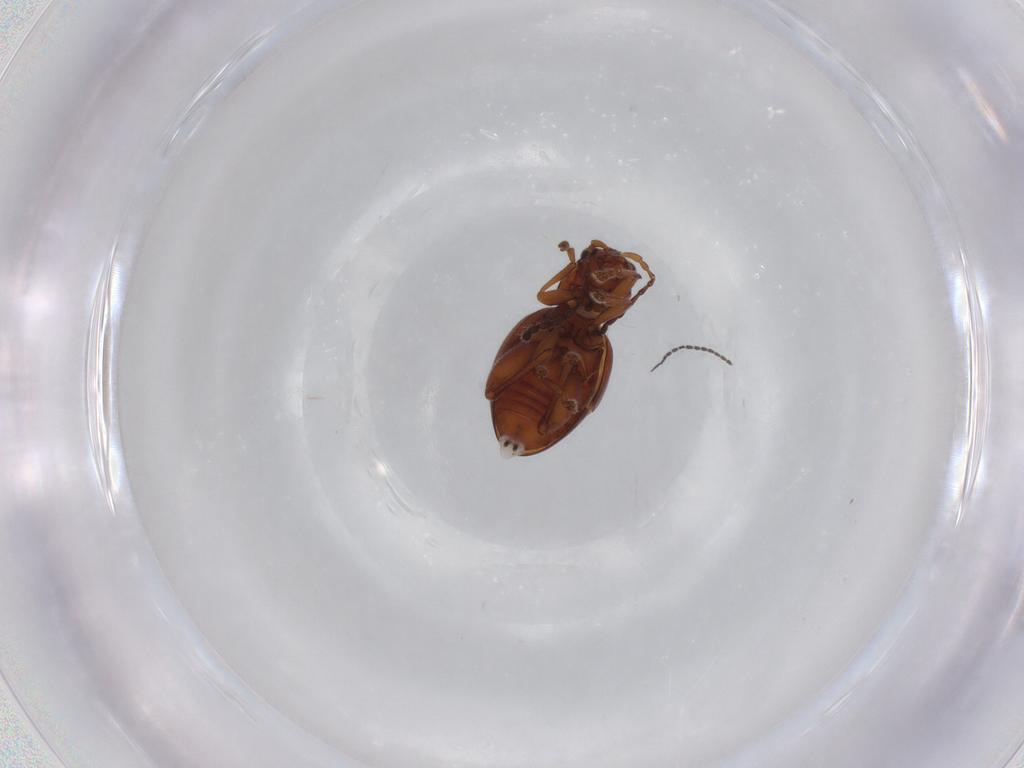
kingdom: Animalia
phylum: Arthropoda
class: Insecta
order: Coleoptera
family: Chrysomelidae
